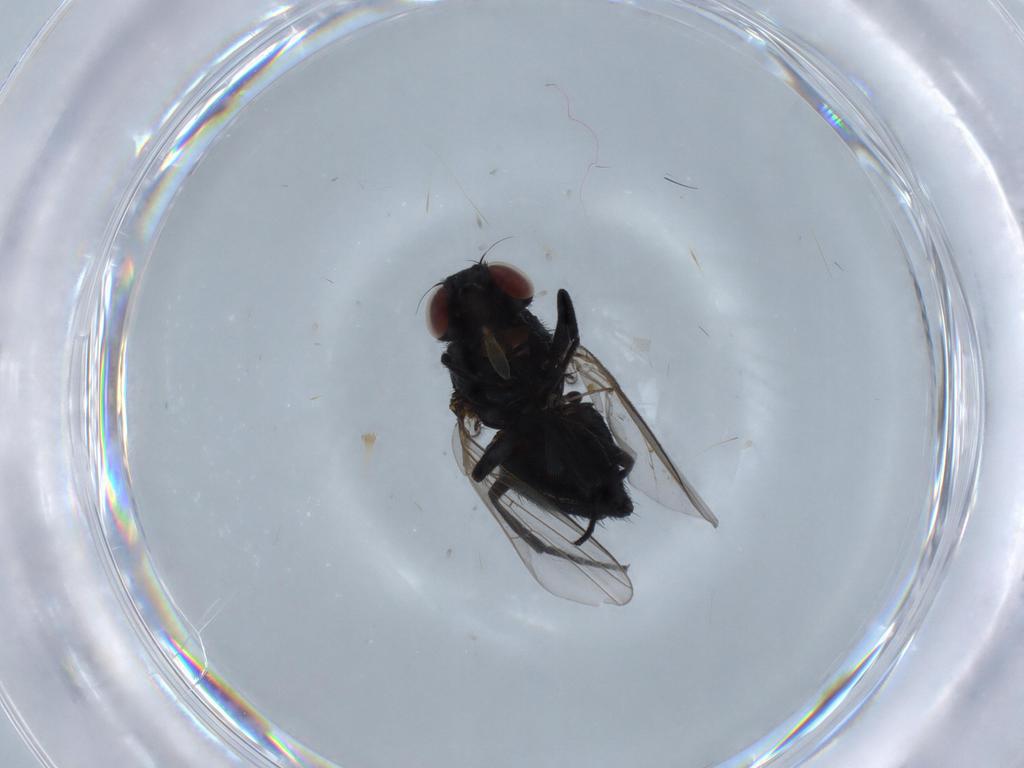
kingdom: Animalia
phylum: Arthropoda
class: Insecta
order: Diptera
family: Agromyzidae
